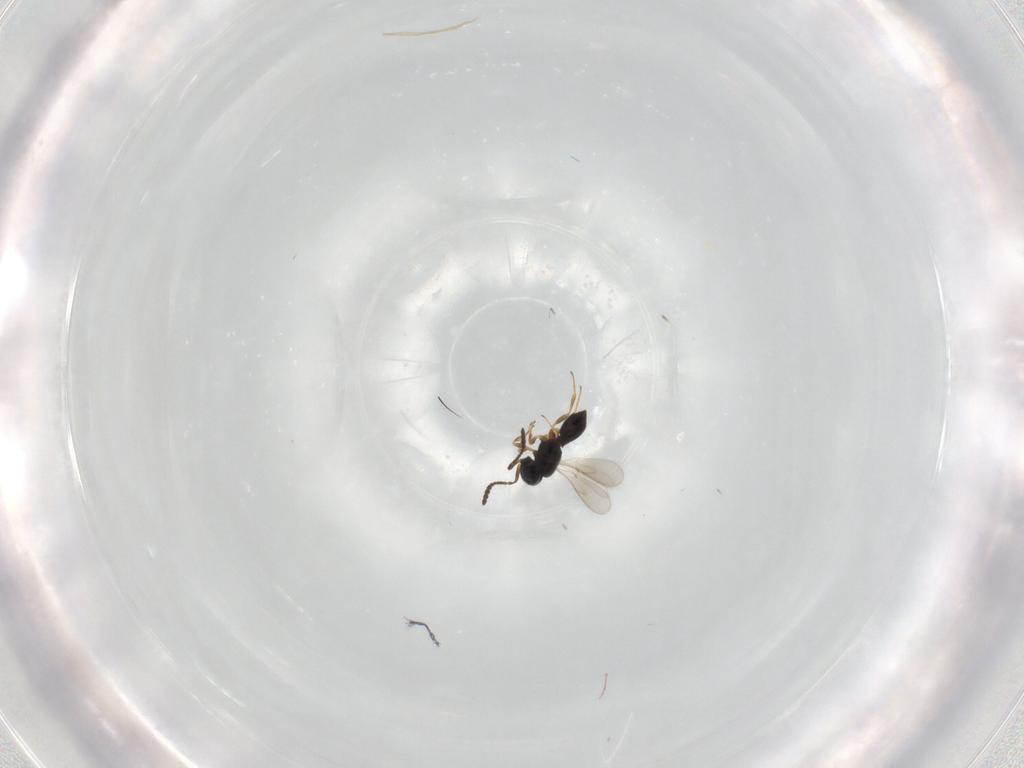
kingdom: Animalia
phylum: Arthropoda
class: Insecta
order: Hymenoptera
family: Scelionidae
